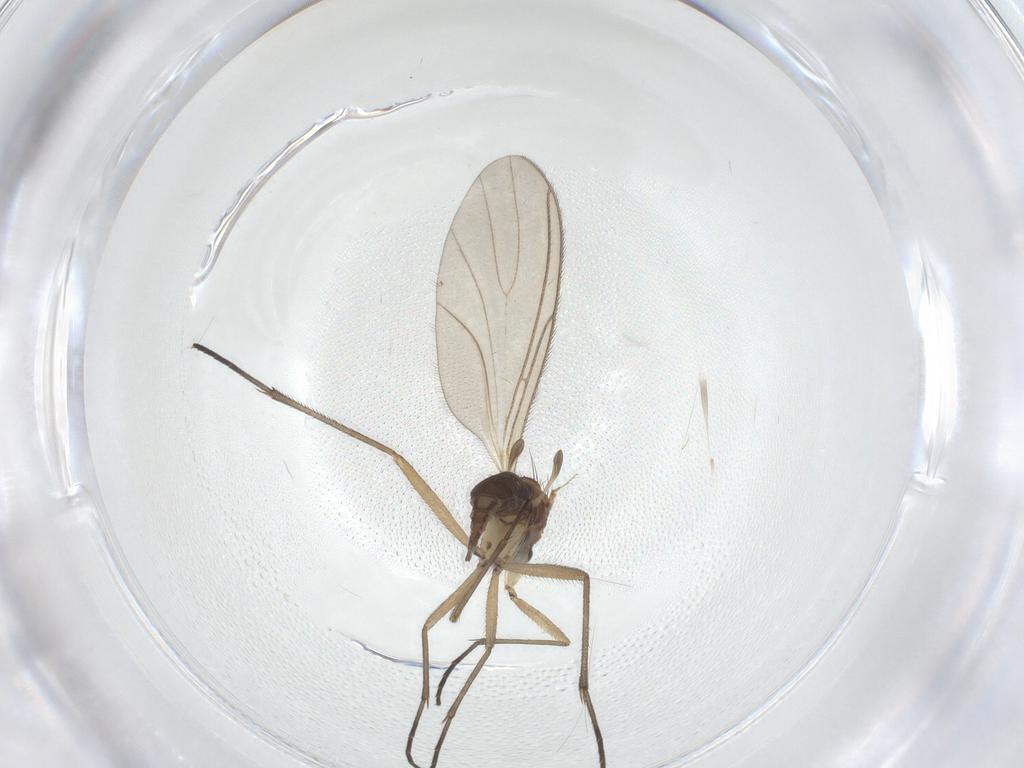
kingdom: Animalia
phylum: Arthropoda
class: Insecta
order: Diptera
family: Sciaridae
